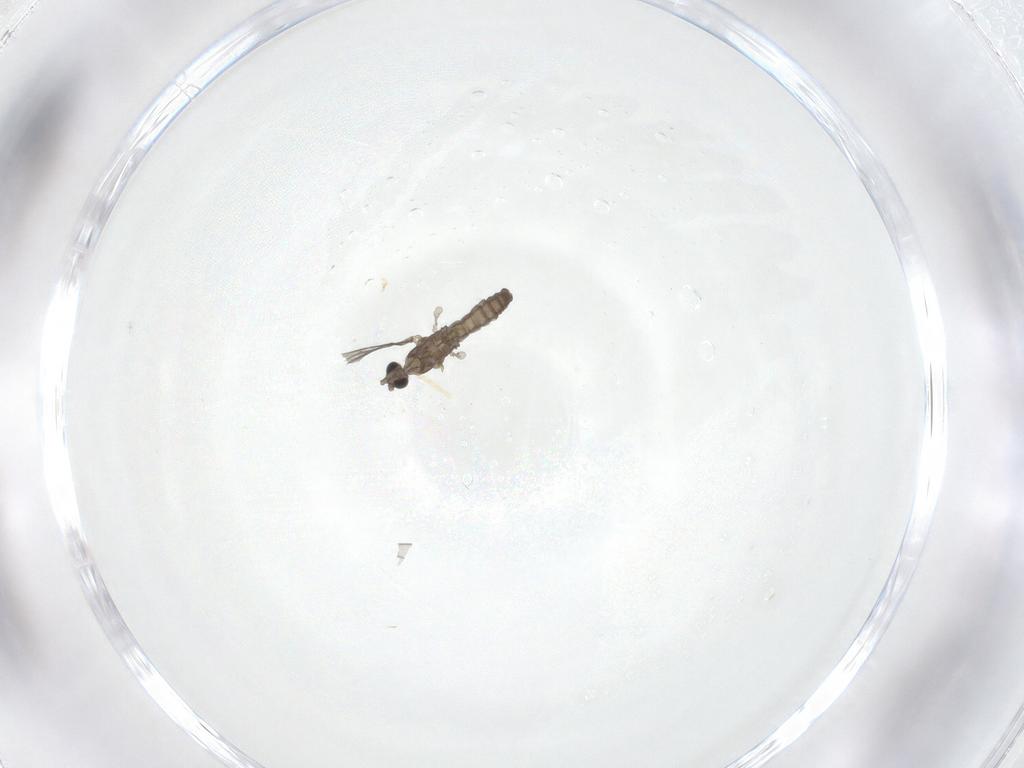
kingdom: Animalia
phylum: Arthropoda
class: Insecta
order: Diptera
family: Cecidomyiidae
